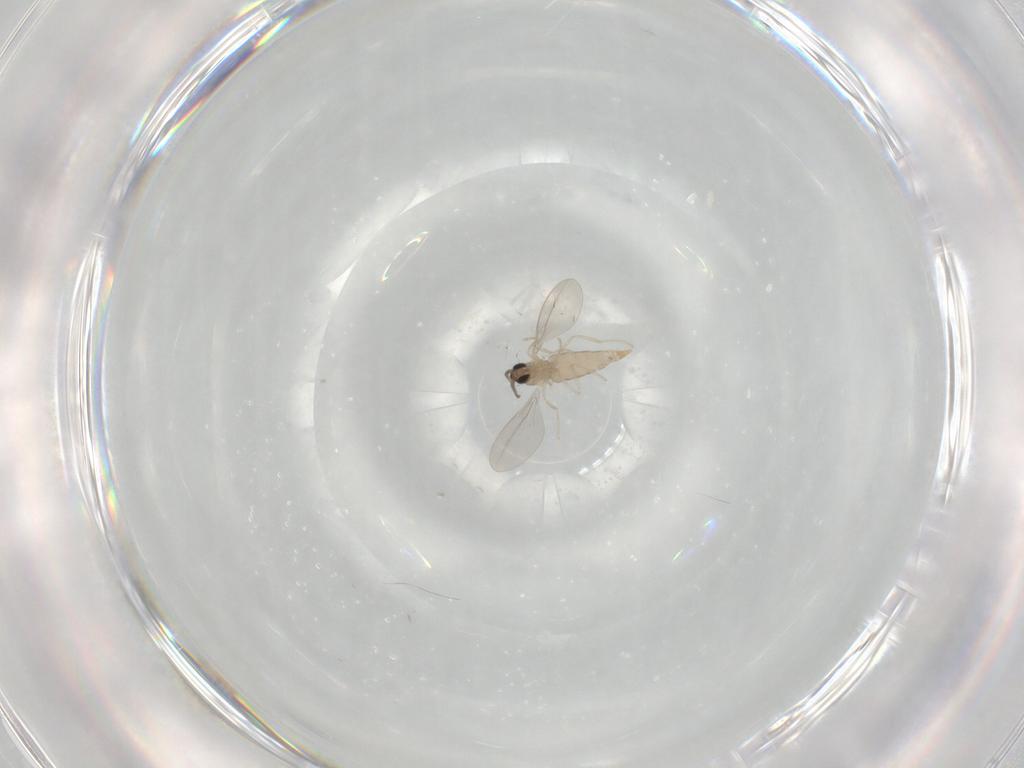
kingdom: Animalia
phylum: Arthropoda
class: Insecta
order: Diptera
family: Cecidomyiidae
